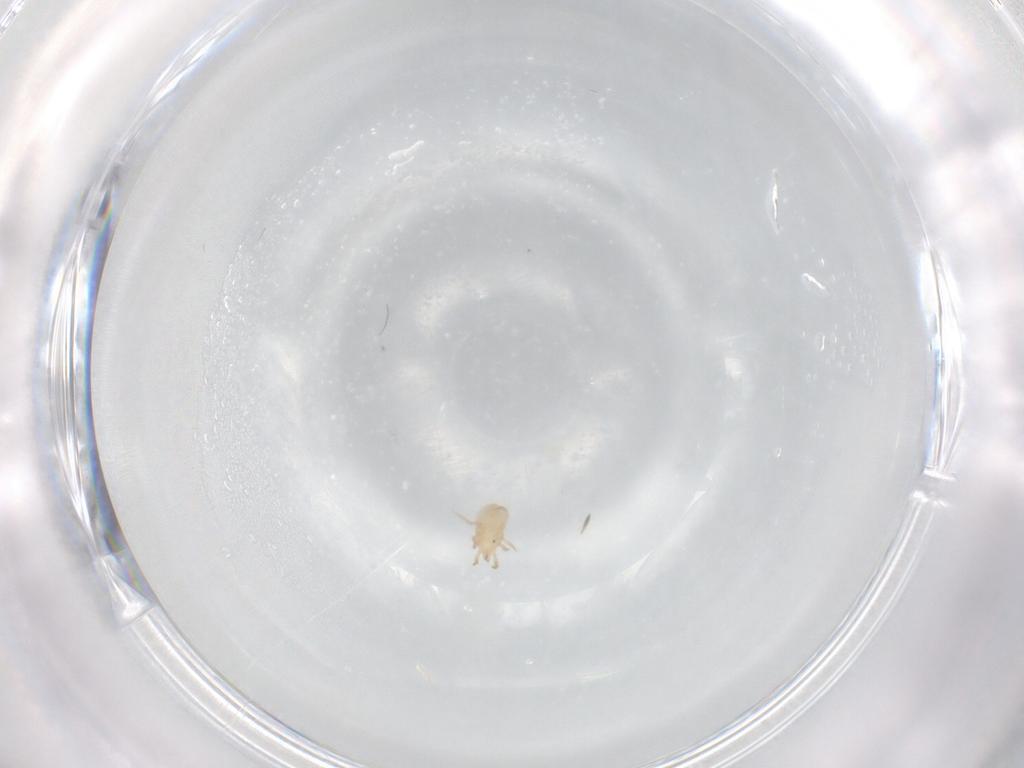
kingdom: Animalia
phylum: Arthropoda
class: Arachnida
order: Mesostigmata
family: Phytoseiidae
